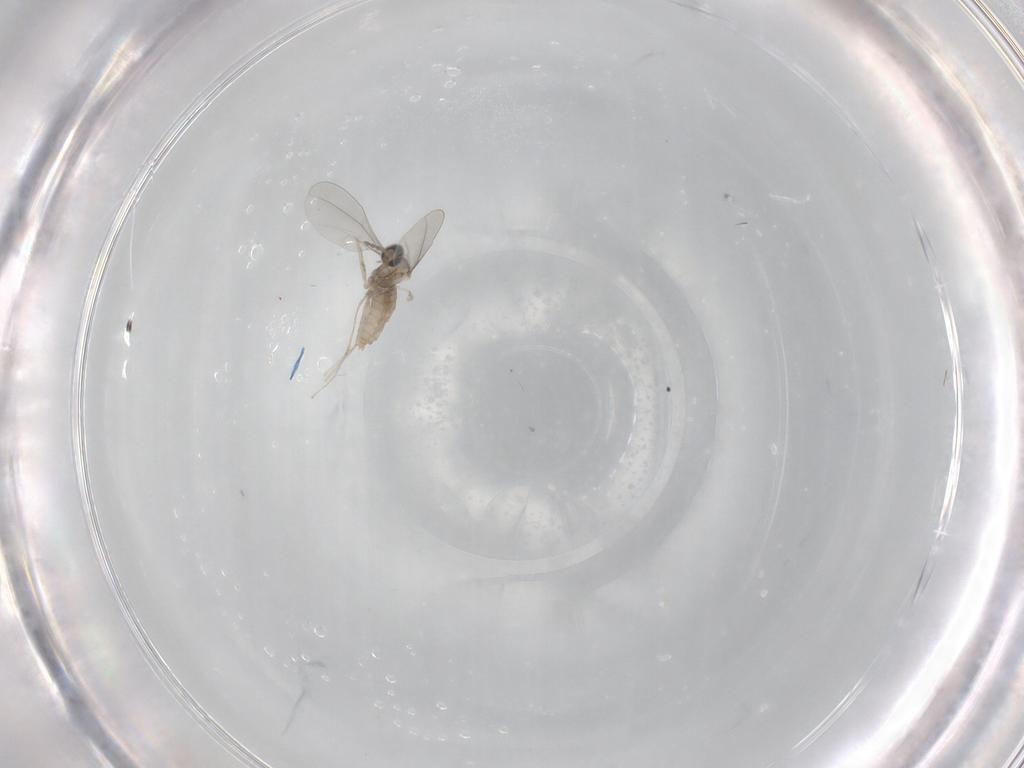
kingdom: Animalia
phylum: Arthropoda
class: Insecta
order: Diptera
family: Cecidomyiidae
